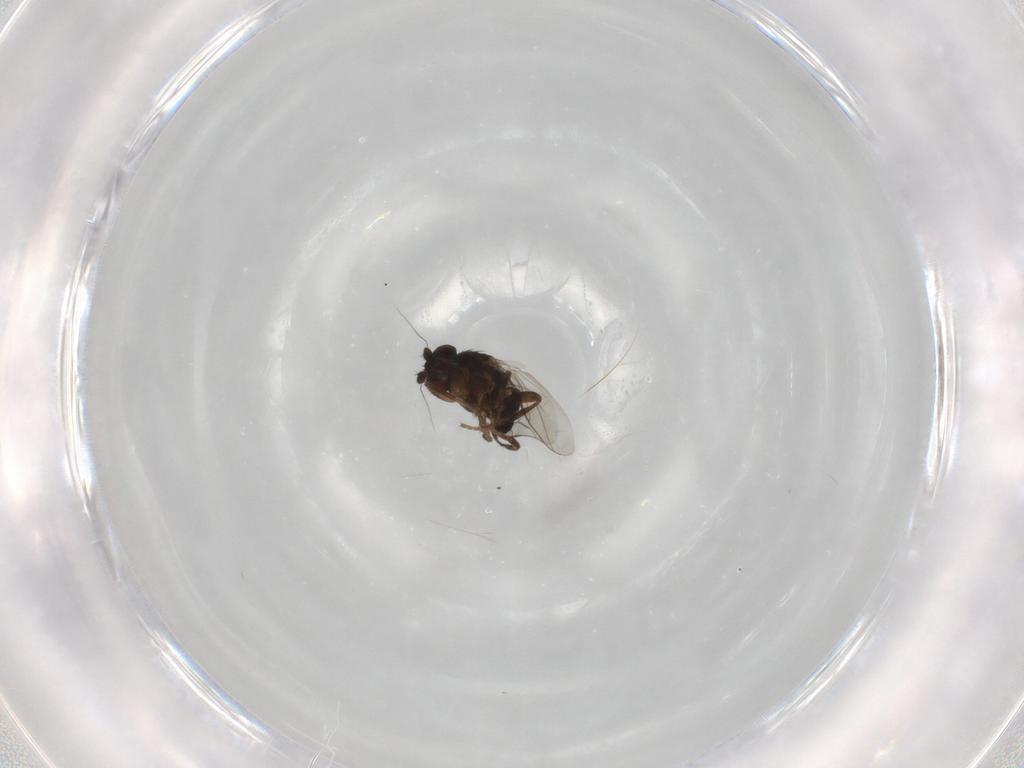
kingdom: Animalia
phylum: Arthropoda
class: Insecta
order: Diptera
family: Sphaeroceridae
